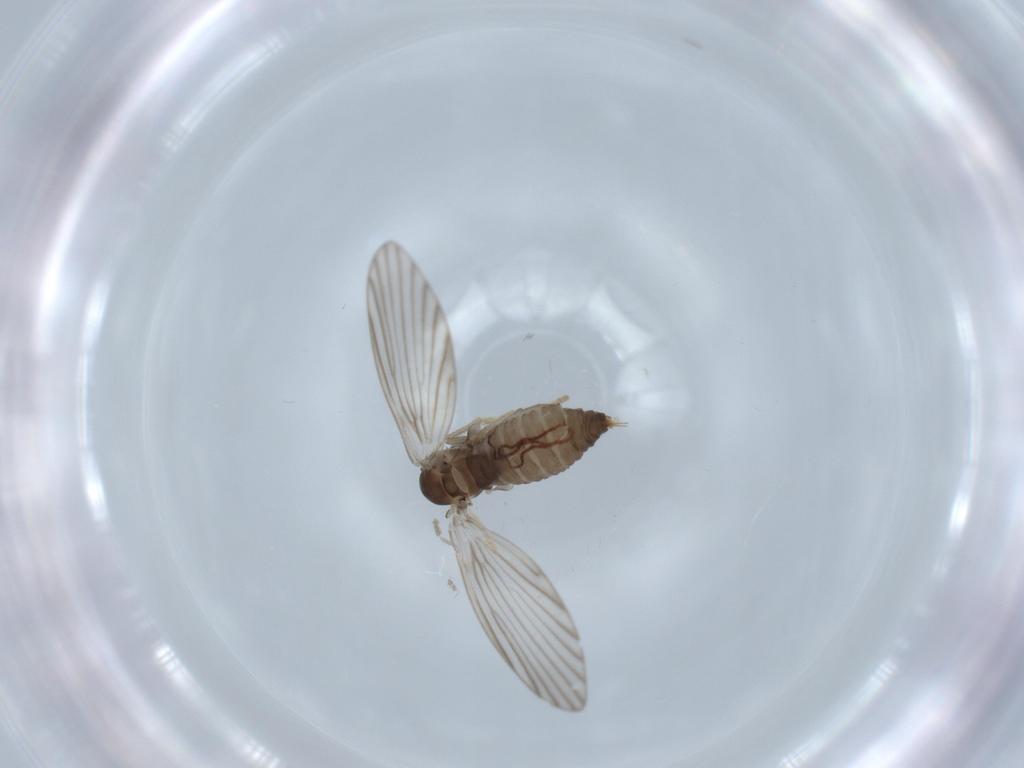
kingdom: Animalia
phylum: Arthropoda
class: Insecta
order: Diptera
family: Psychodidae
